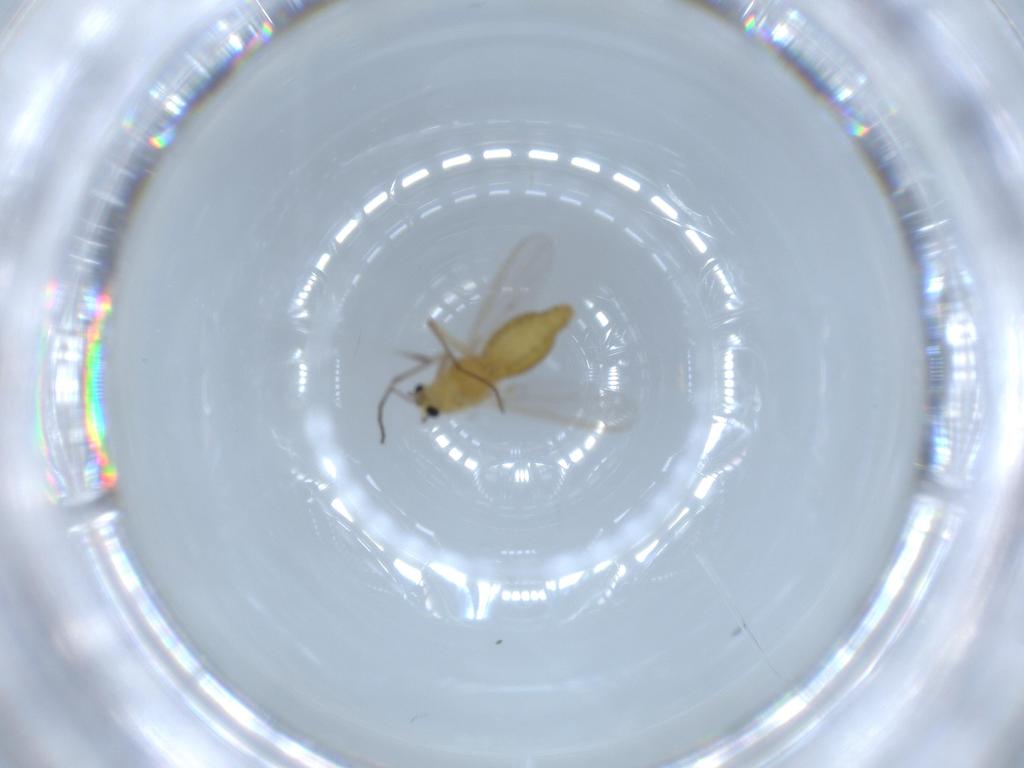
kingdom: Animalia
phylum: Arthropoda
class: Insecta
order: Diptera
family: Chironomidae
